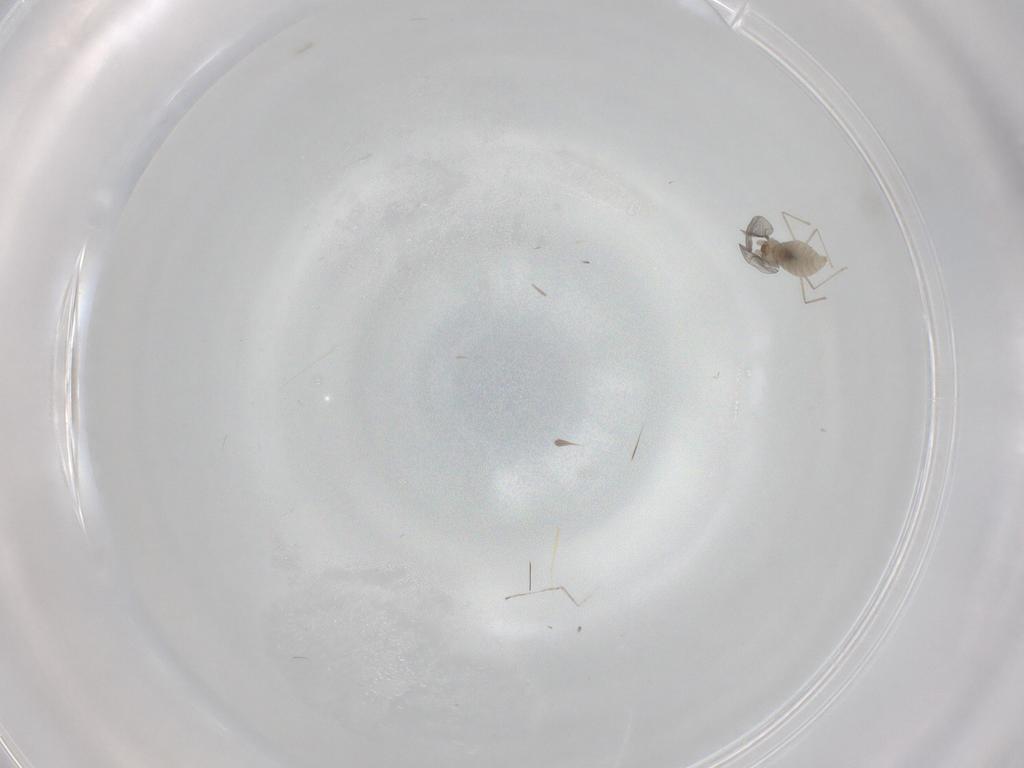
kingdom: Animalia
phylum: Arthropoda
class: Insecta
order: Diptera
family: Cecidomyiidae
